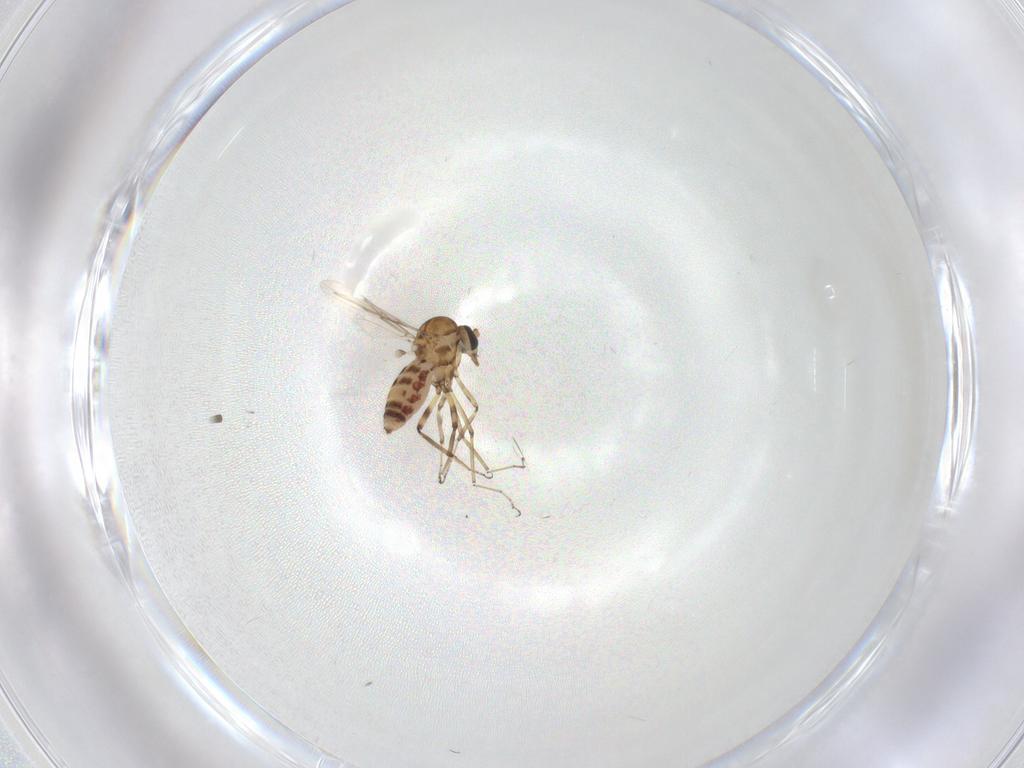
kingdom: Animalia
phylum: Arthropoda
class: Insecta
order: Diptera
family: Ceratopogonidae
